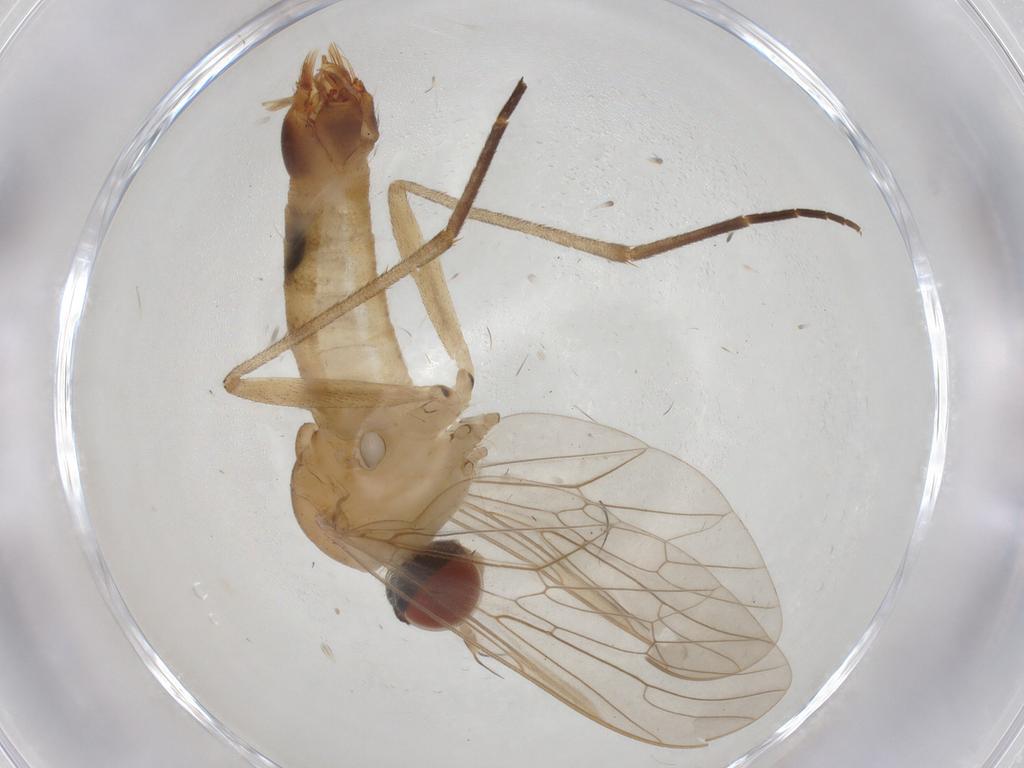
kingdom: Animalia
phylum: Arthropoda
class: Insecta
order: Diptera
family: Apsilocephalidae
